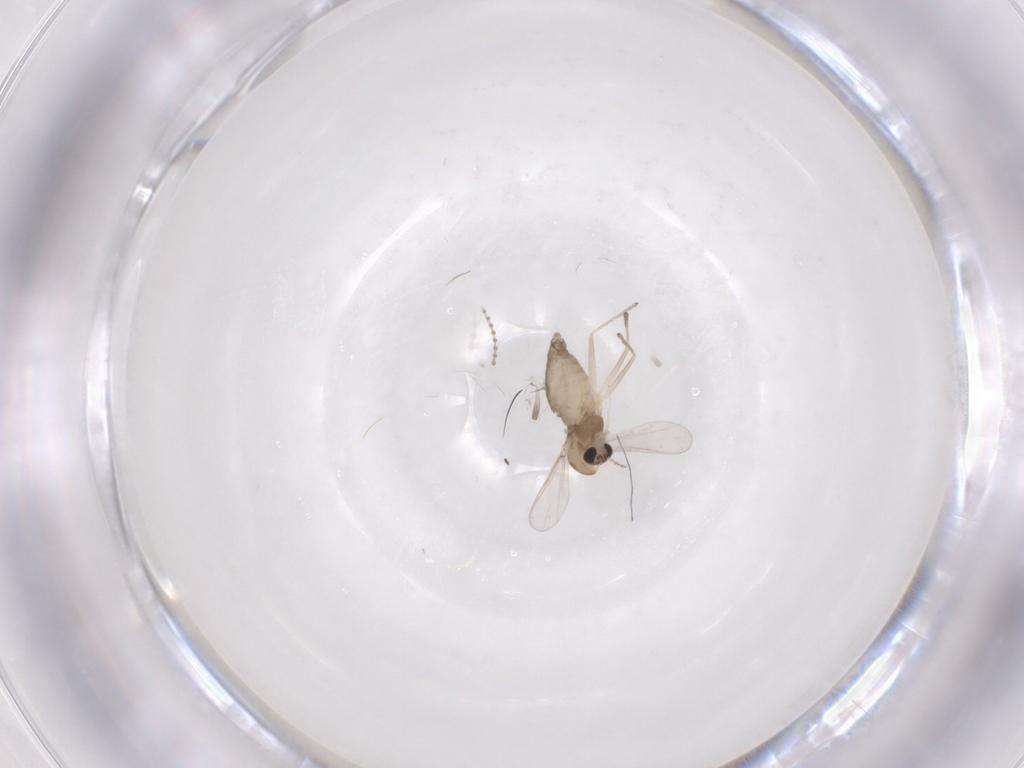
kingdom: Animalia
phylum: Arthropoda
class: Insecta
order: Diptera
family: Chironomidae
